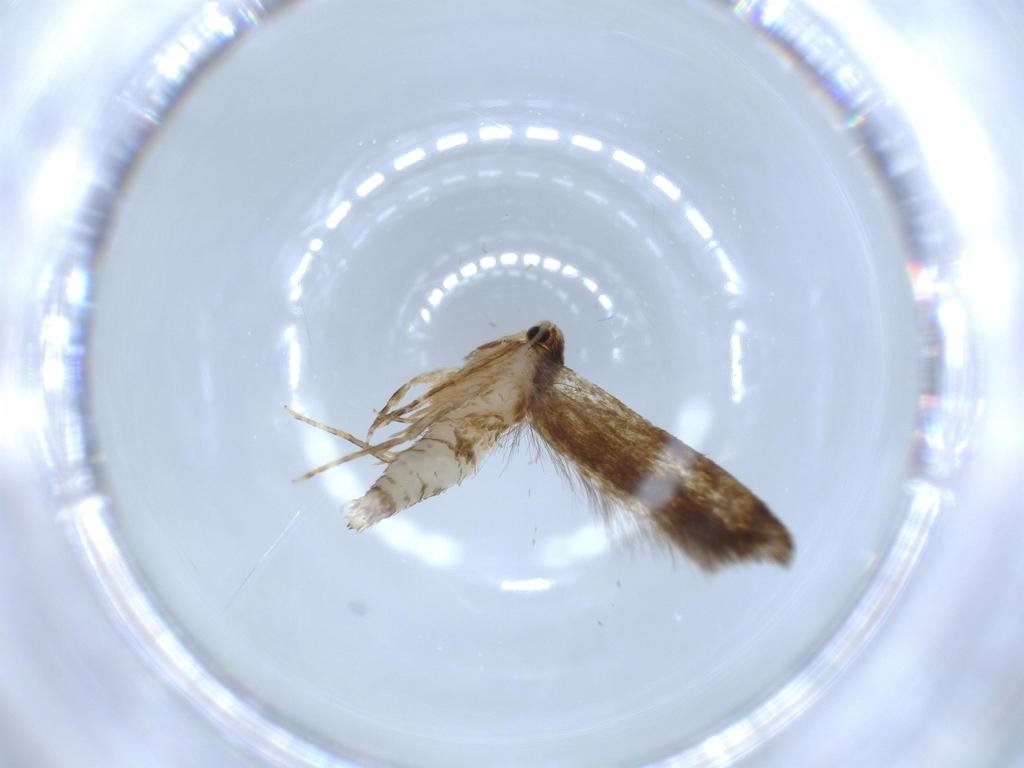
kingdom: Animalia
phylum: Arthropoda
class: Insecta
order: Lepidoptera
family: Tineidae
